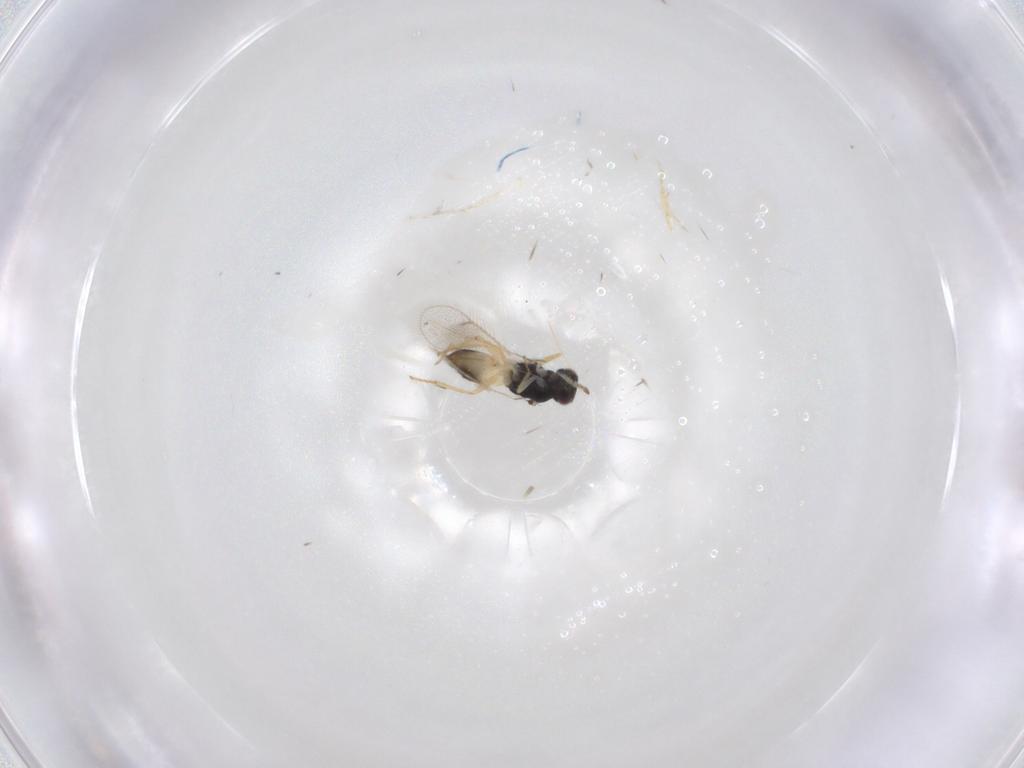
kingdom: Animalia
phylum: Arthropoda
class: Insecta
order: Hymenoptera
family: Eulophidae
